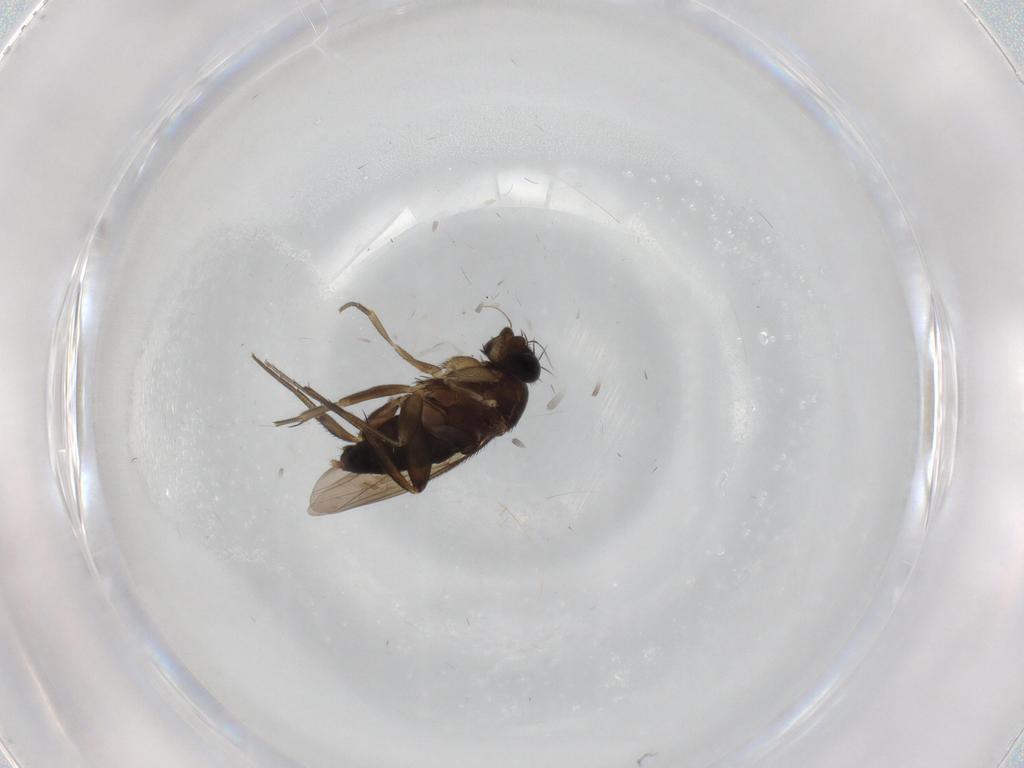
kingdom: Animalia
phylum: Arthropoda
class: Insecta
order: Diptera
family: Phoridae
